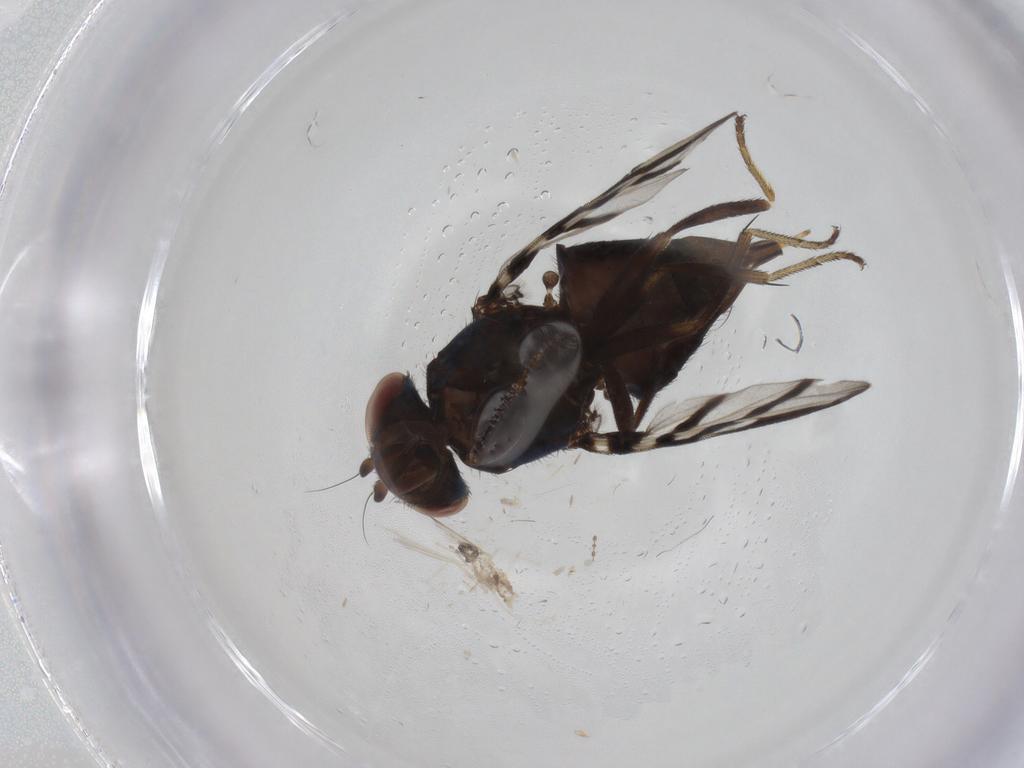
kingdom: Animalia
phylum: Arthropoda
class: Insecta
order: Diptera
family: Ulidiidae
